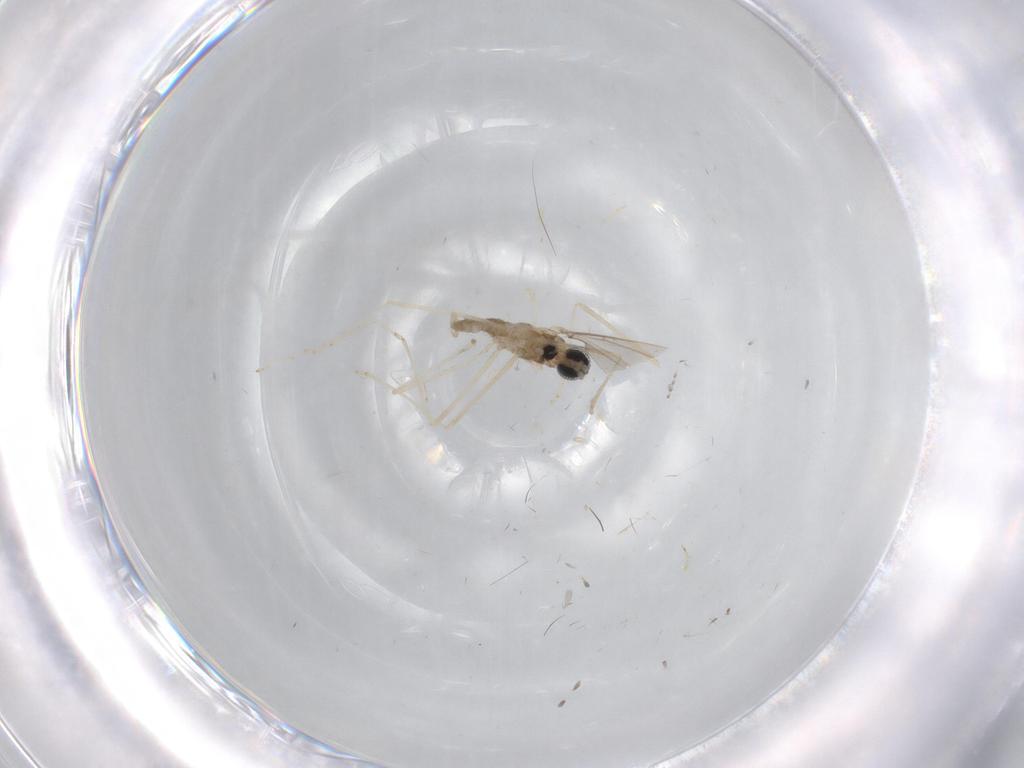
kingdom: Animalia
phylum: Arthropoda
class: Insecta
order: Diptera
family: Cecidomyiidae
